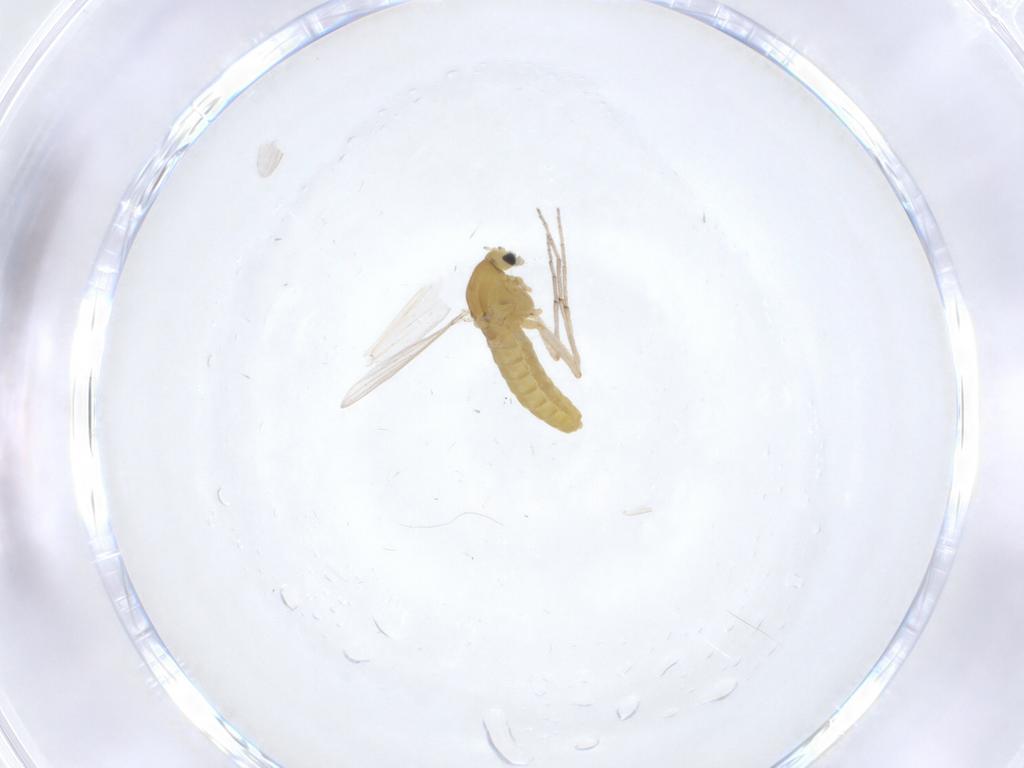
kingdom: Animalia
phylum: Arthropoda
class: Insecta
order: Diptera
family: Chironomidae
